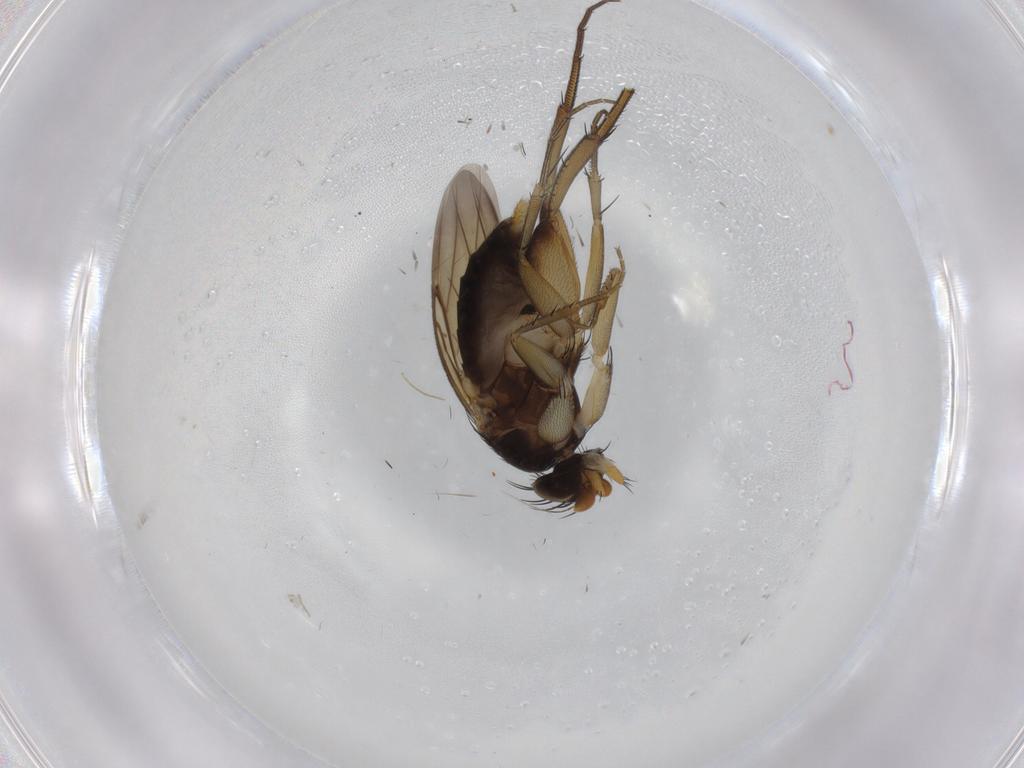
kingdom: Animalia
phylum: Arthropoda
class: Insecta
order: Diptera
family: Phoridae
